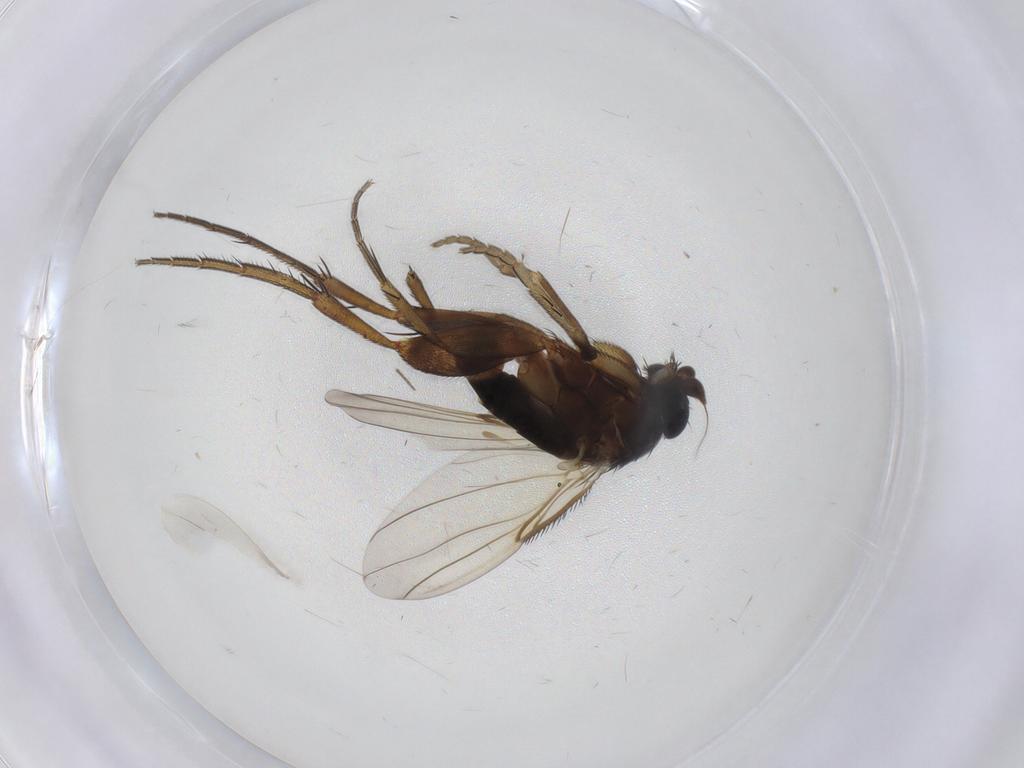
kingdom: Animalia
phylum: Arthropoda
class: Insecta
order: Diptera
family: Phoridae
